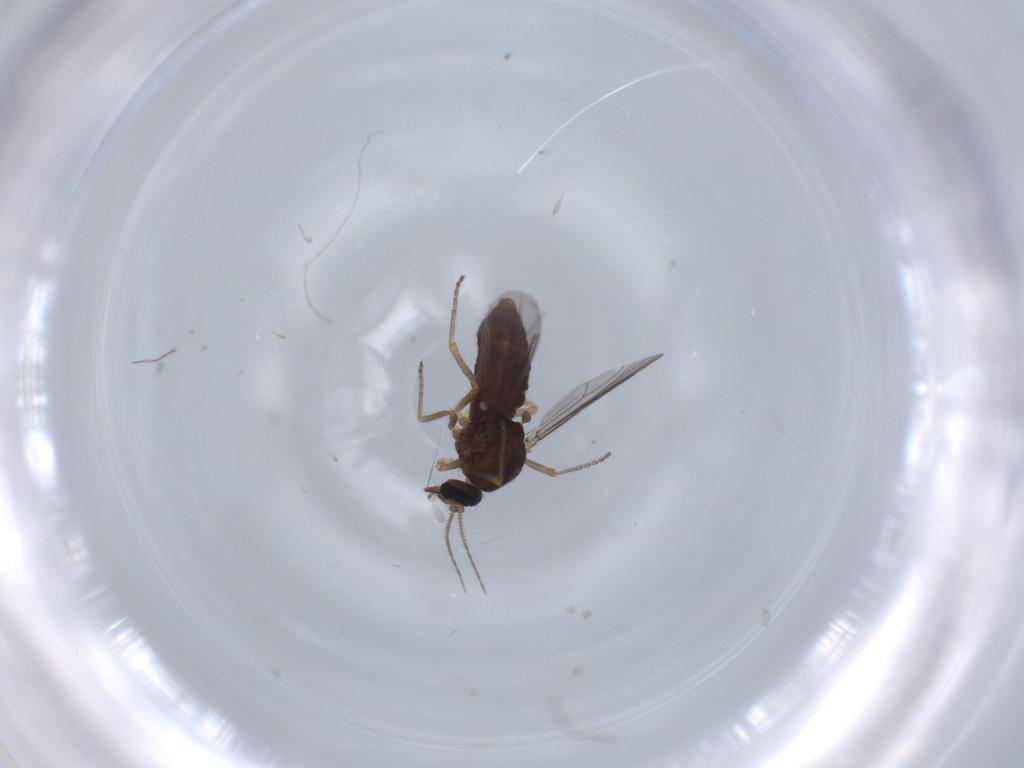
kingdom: Animalia
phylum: Arthropoda
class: Insecta
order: Diptera
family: Ceratopogonidae
